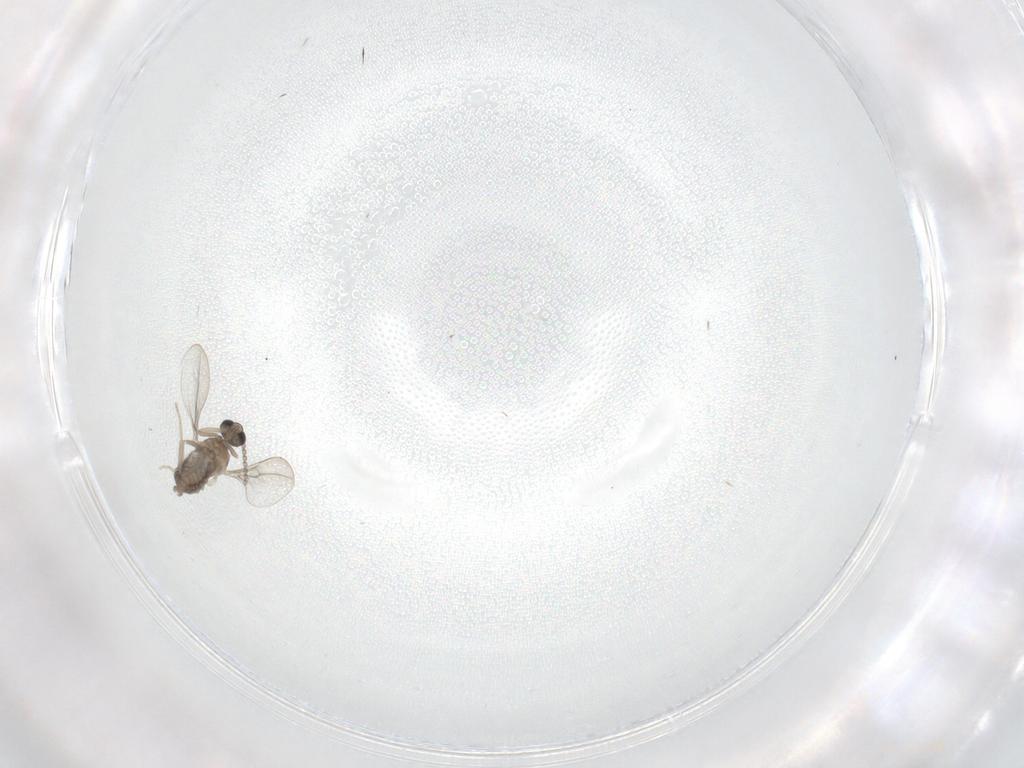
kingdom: Animalia
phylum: Arthropoda
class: Insecta
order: Diptera
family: Cecidomyiidae
